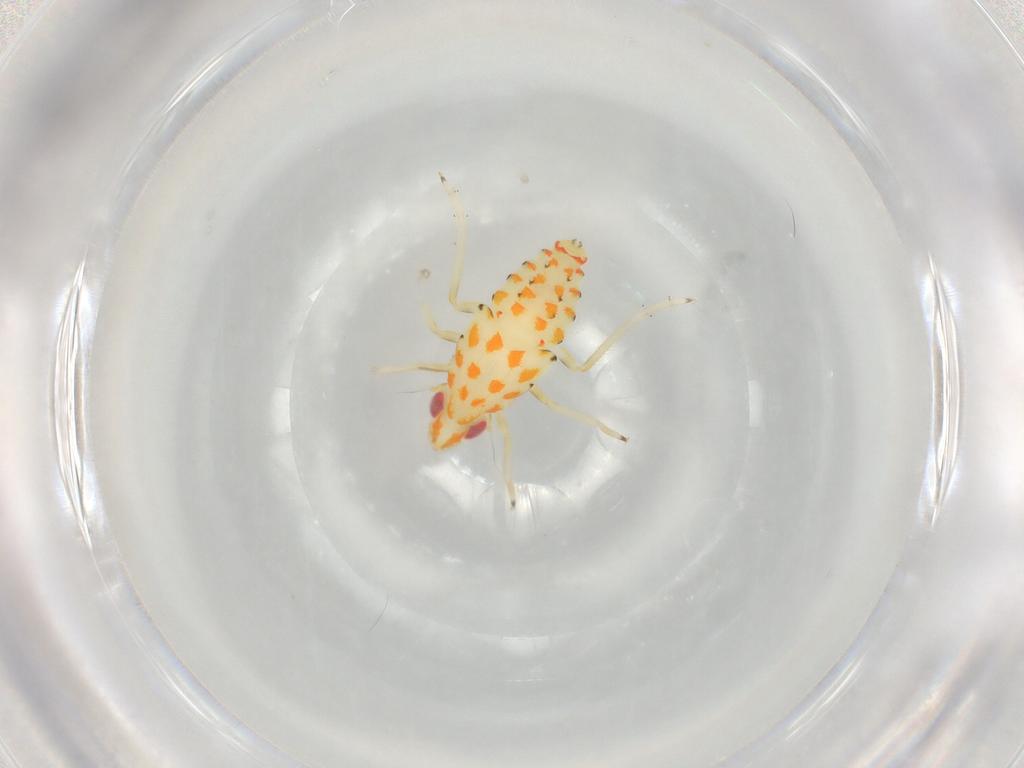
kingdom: Animalia
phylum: Arthropoda
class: Insecta
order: Hemiptera
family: Tropiduchidae
